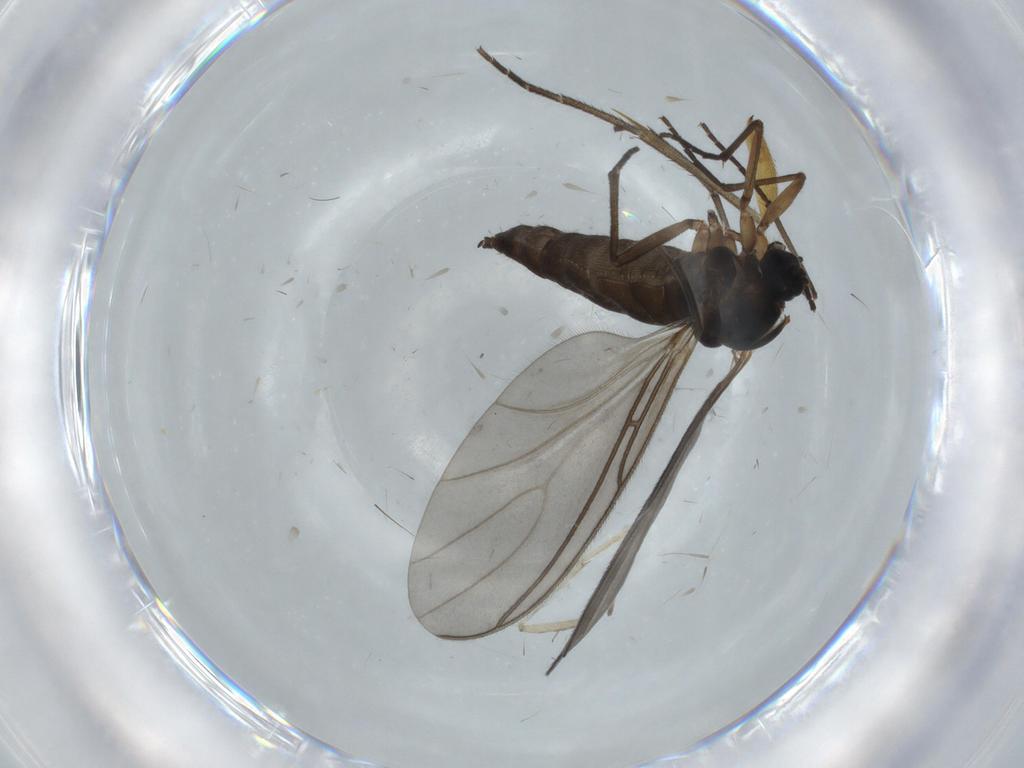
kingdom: Animalia
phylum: Arthropoda
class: Insecta
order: Diptera
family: Sciaridae
